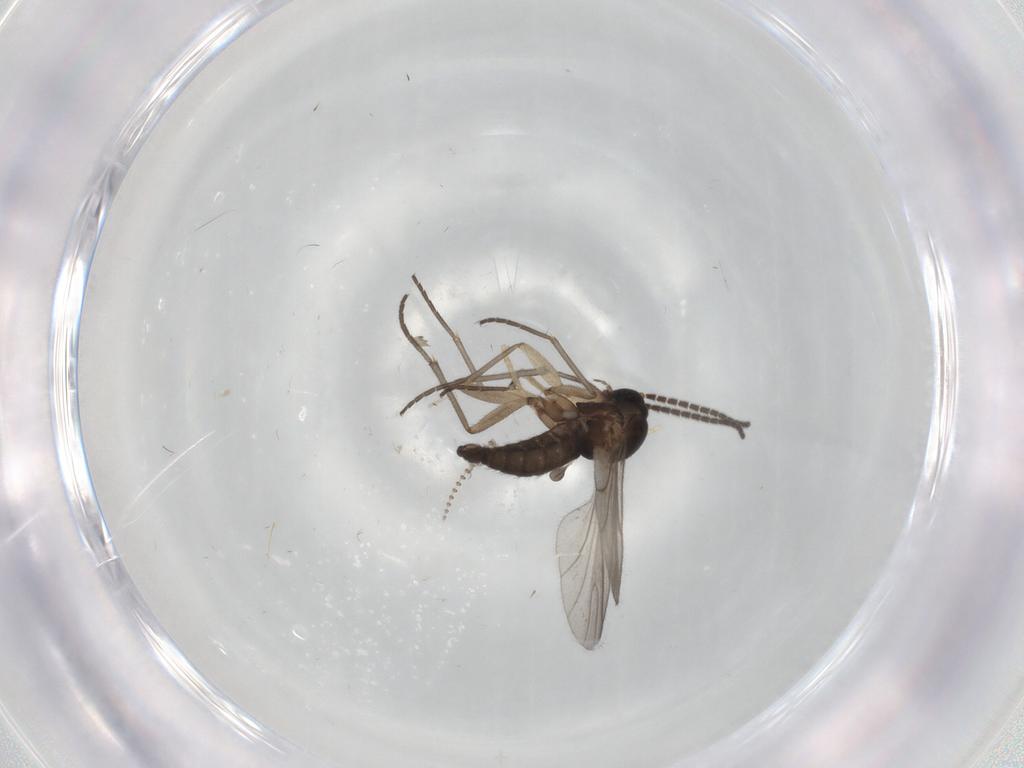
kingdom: Animalia
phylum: Arthropoda
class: Insecta
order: Diptera
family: Sciaridae
